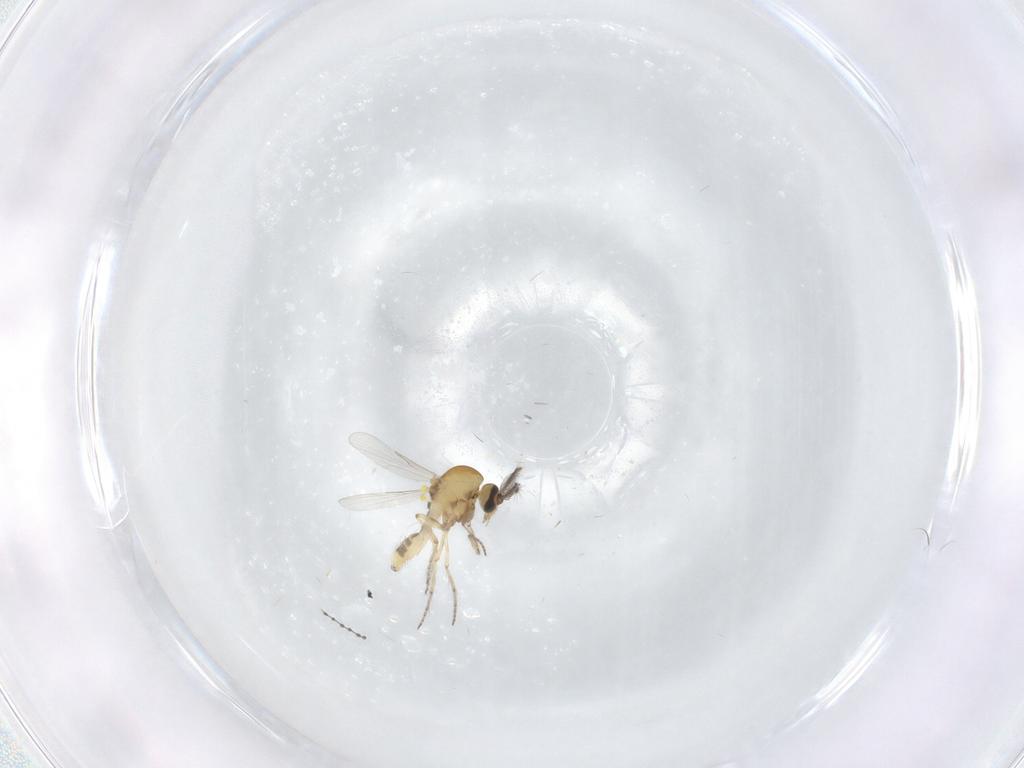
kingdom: Animalia
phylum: Arthropoda
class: Insecta
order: Diptera
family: Ceratopogonidae
